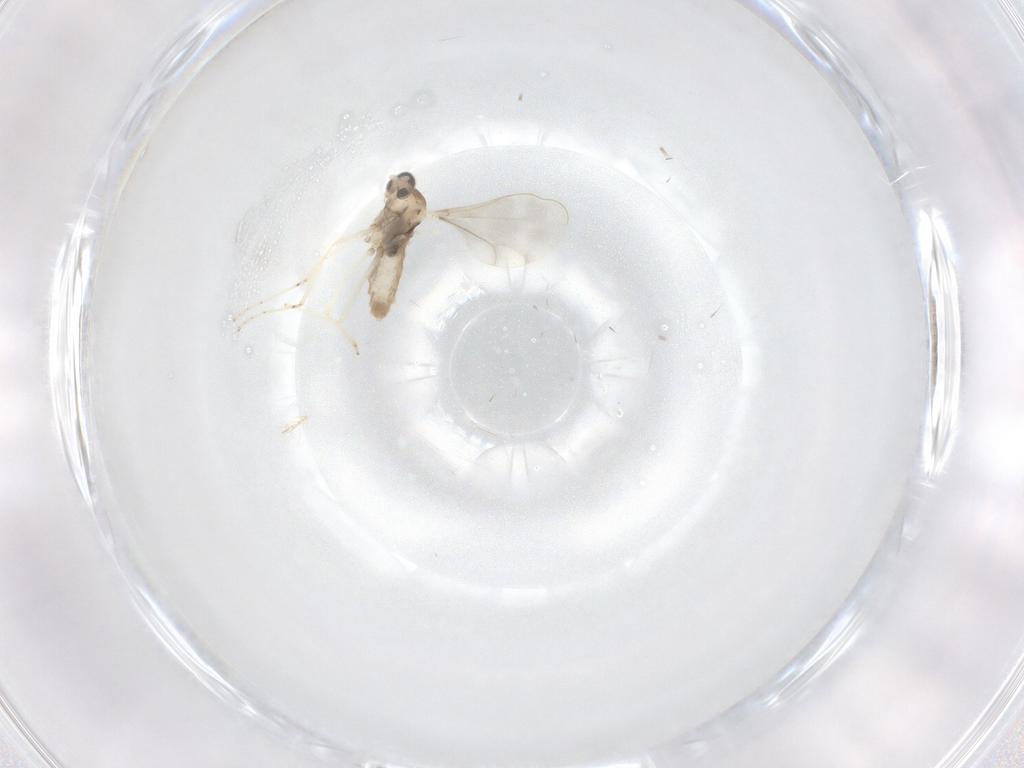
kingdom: Animalia
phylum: Arthropoda
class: Insecta
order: Diptera
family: Cecidomyiidae
